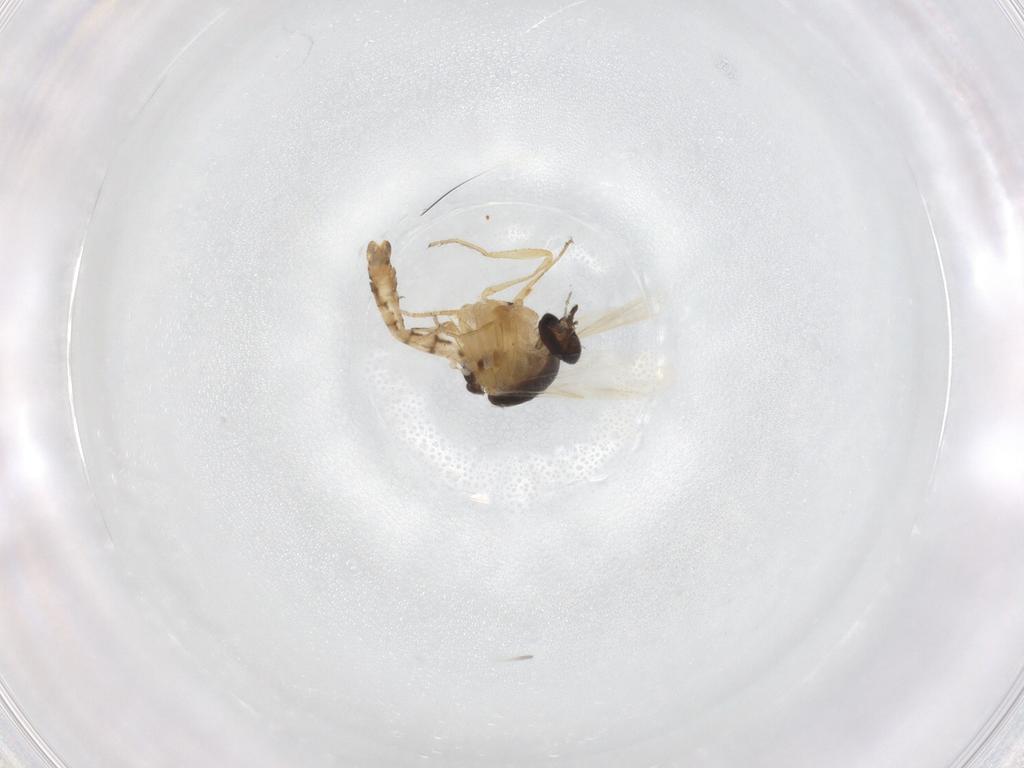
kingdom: Animalia
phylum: Arthropoda
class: Insecta
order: Diptera
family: Ceratopogonidae
